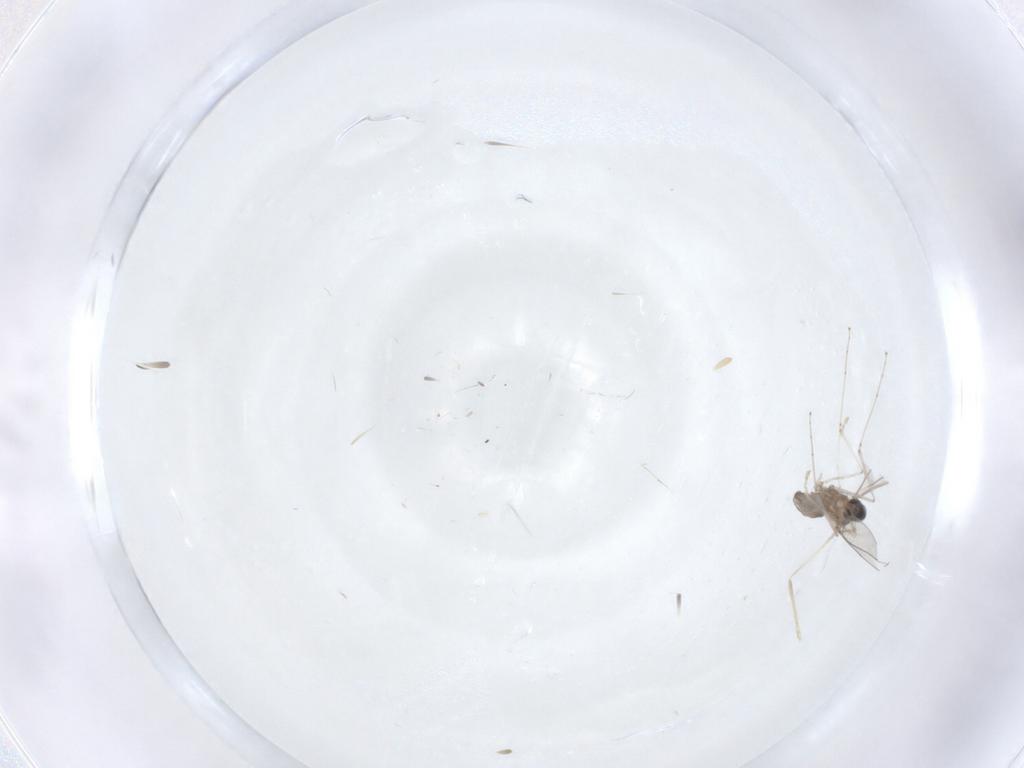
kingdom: Animalia
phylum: Arthropoda
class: Insecta
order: Diptera
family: Cecidomyiidae
